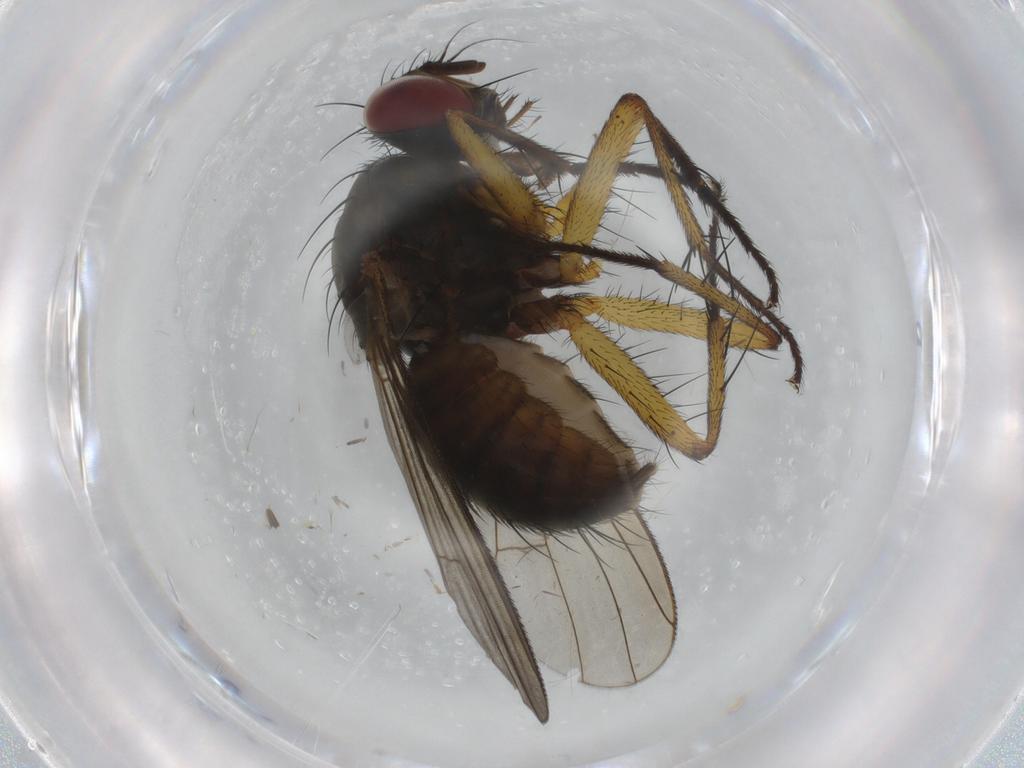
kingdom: Animalia
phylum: Arthropoda
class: Insecta
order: Diptera
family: Muscidae
